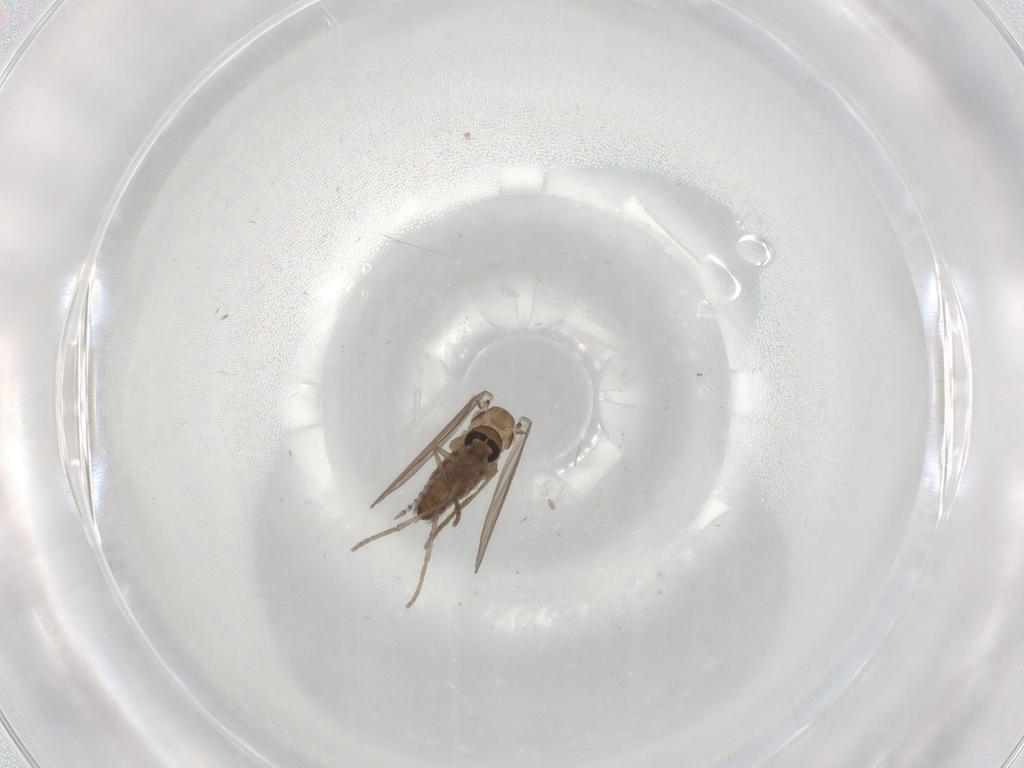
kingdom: Animalia
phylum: Arthropoda
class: Insecta
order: Diptera
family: Psychodidae
